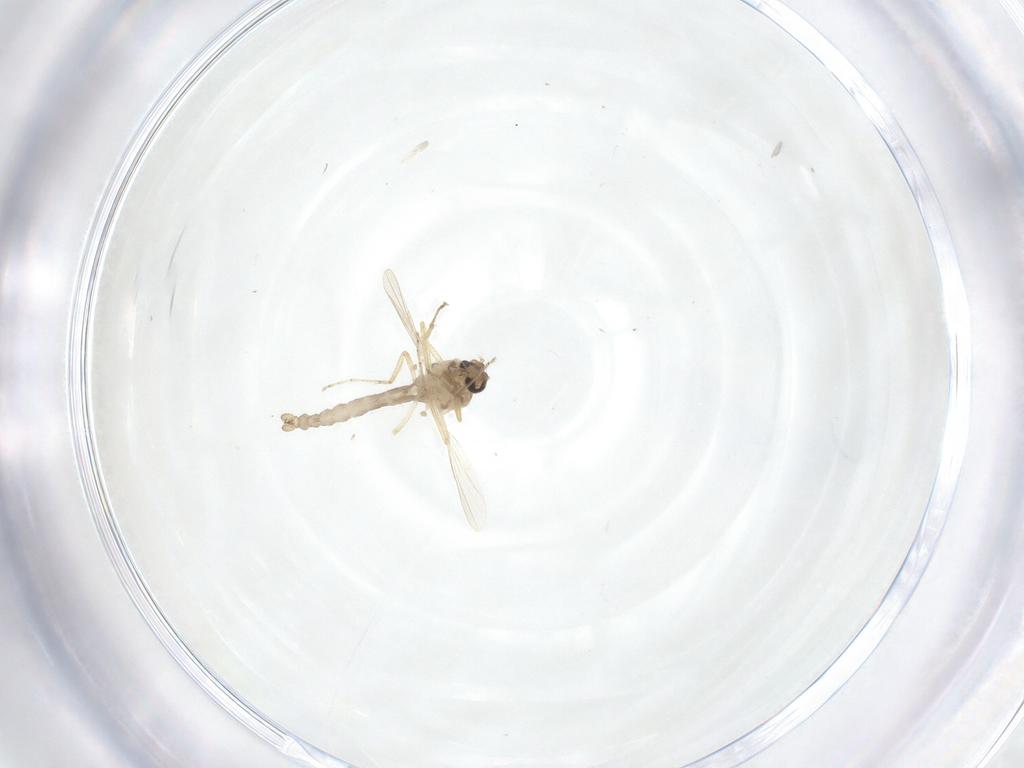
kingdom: Animalia
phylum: Arthropoda
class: Insecta
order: Diptera
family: Ceratopogonidae
